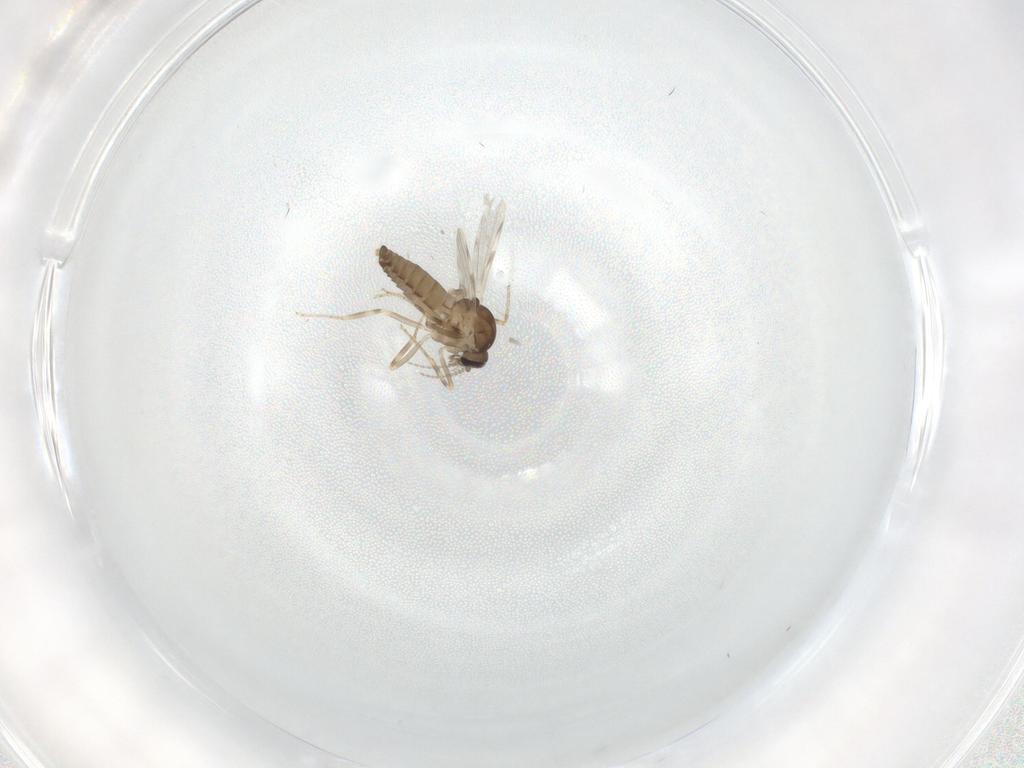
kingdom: Animalia
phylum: Arthropoda
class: Insecta
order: Diptera
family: Ceratopogonidae
